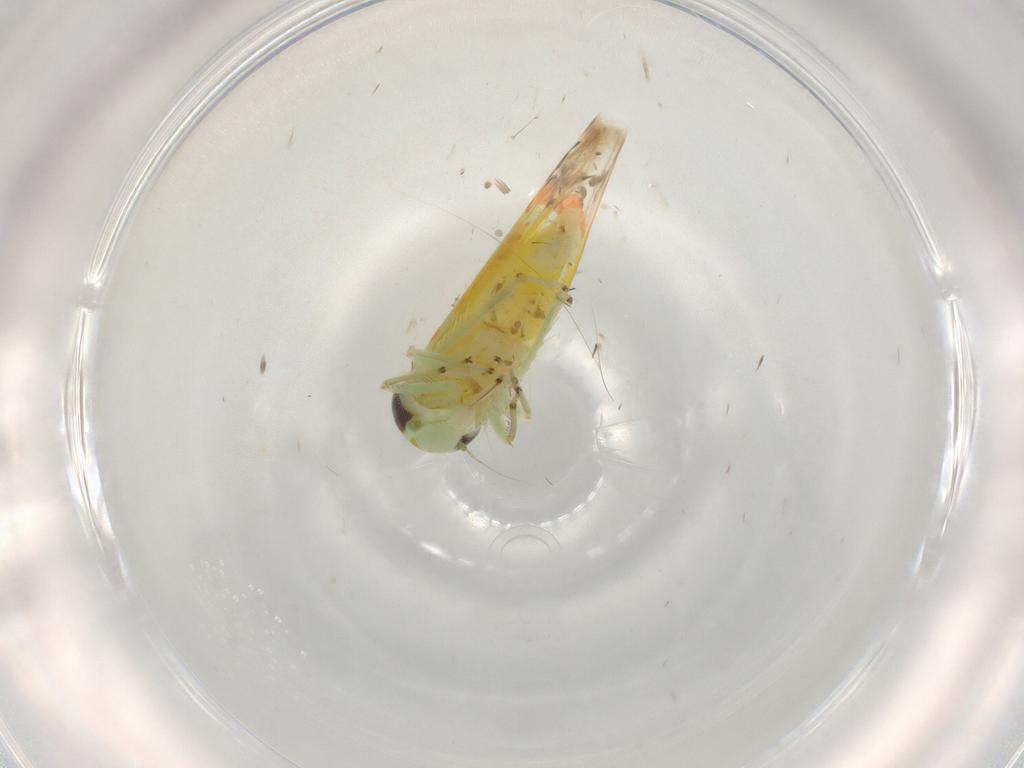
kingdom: Animalia
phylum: Arthropoda
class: Insecta
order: Hemiptera
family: Cicadellidae
